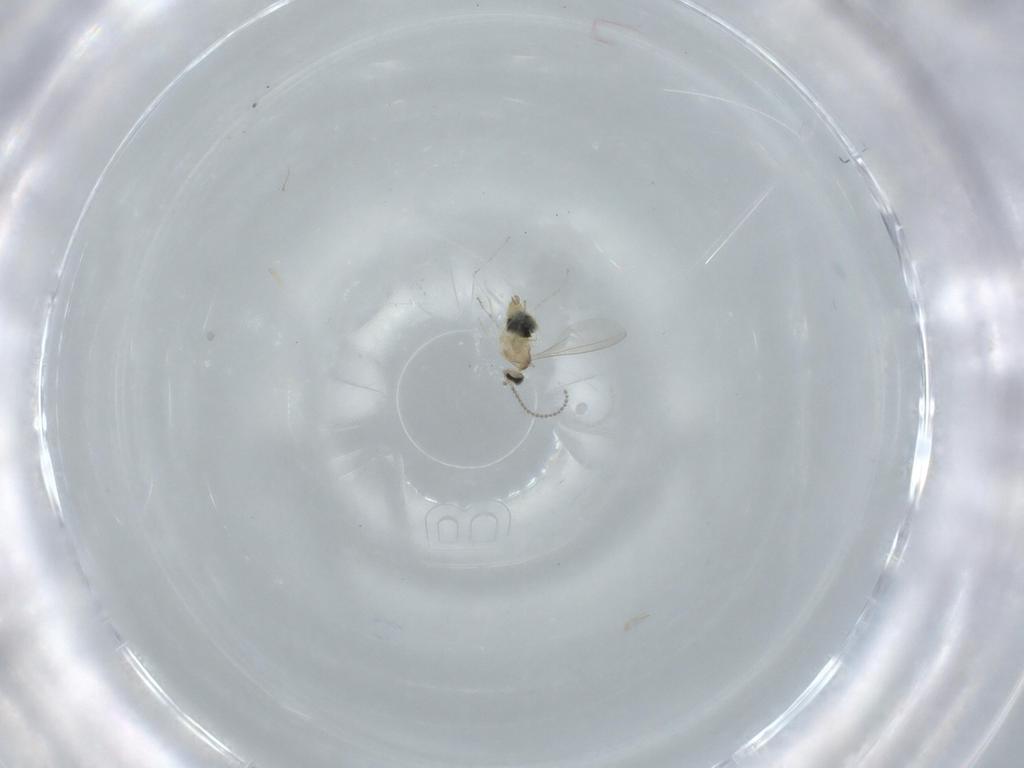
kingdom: Animalia
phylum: Arthropoda
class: Insecta
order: Diptera
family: Cecidomyiidae
